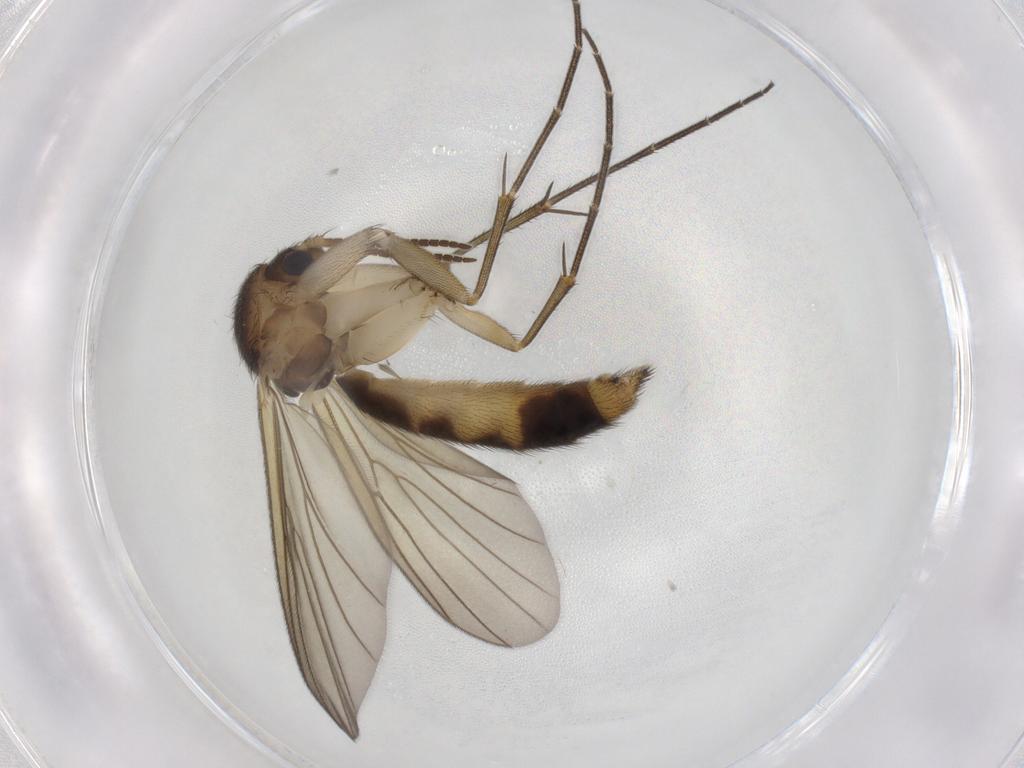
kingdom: Animalia
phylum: Arthropoda
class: Insecta
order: Diptera
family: Mycetophilidae
